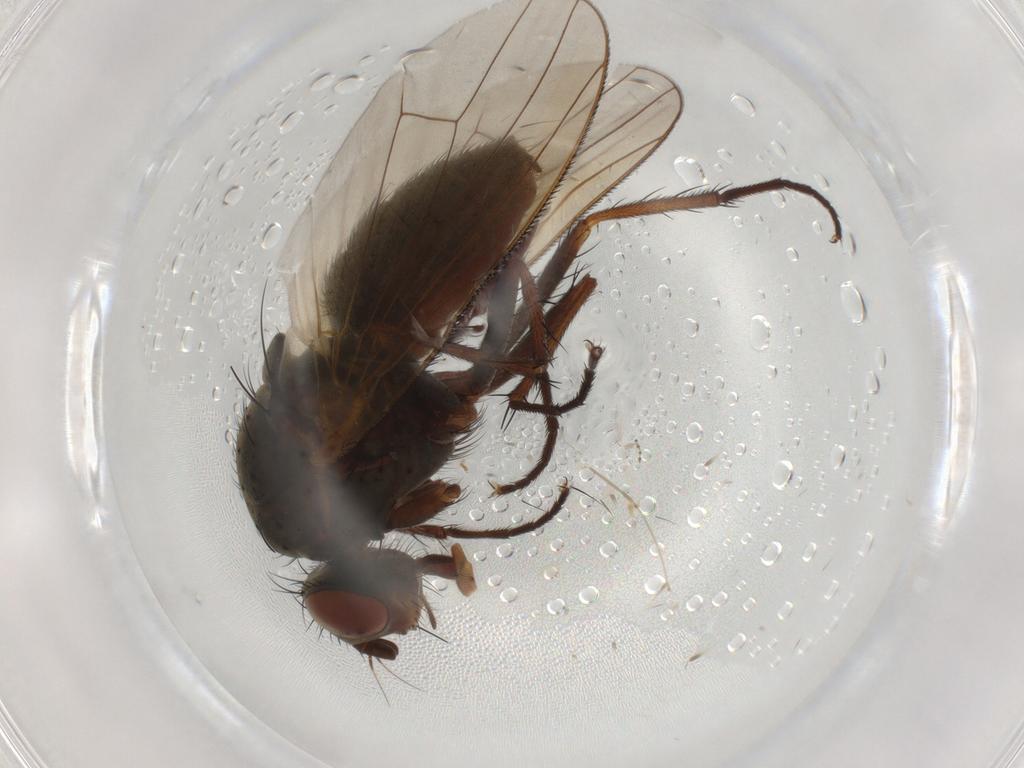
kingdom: Animalia
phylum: Arthropoda
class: Insecta
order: Diptera
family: Anthomyiidae
